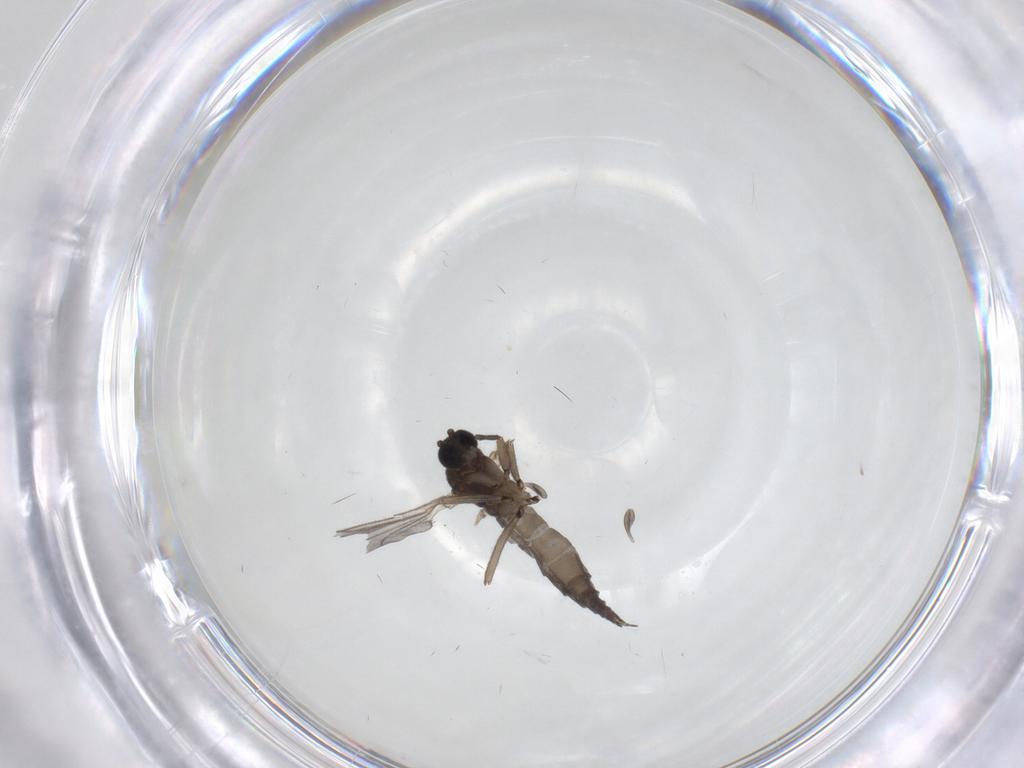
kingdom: Animalia
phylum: Arthropoda
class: Insecta
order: Diptera
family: Sciaridae
